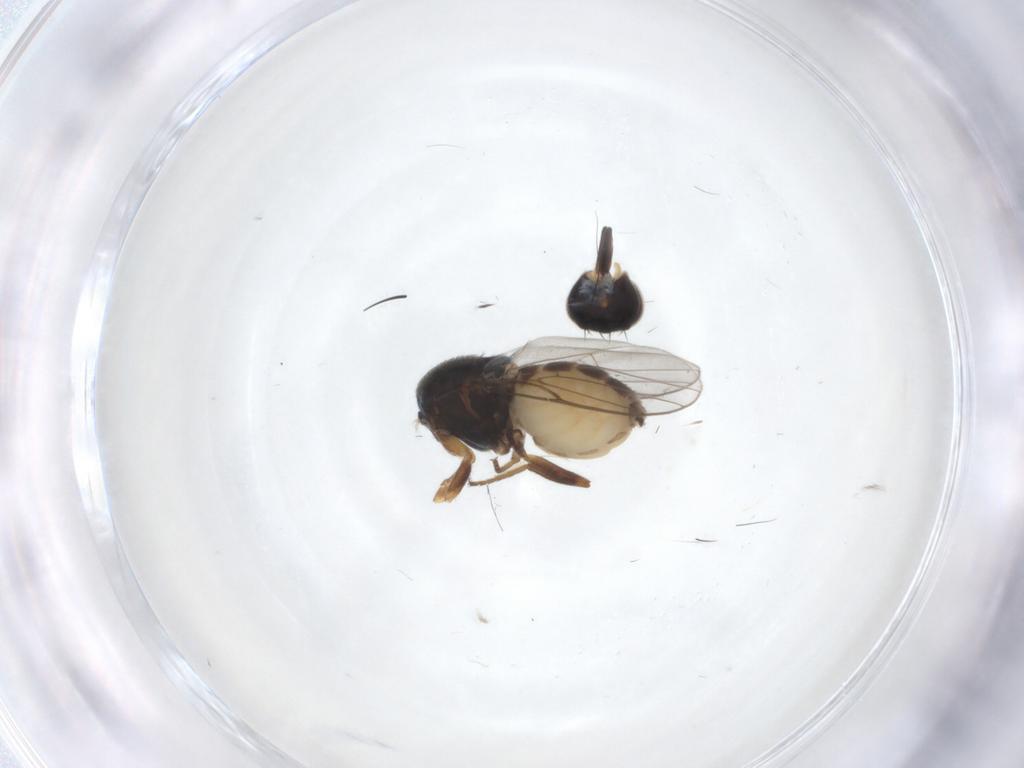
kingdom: Animalia
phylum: Arthropoda
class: Insecta
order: Diptera
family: Chloropidae
